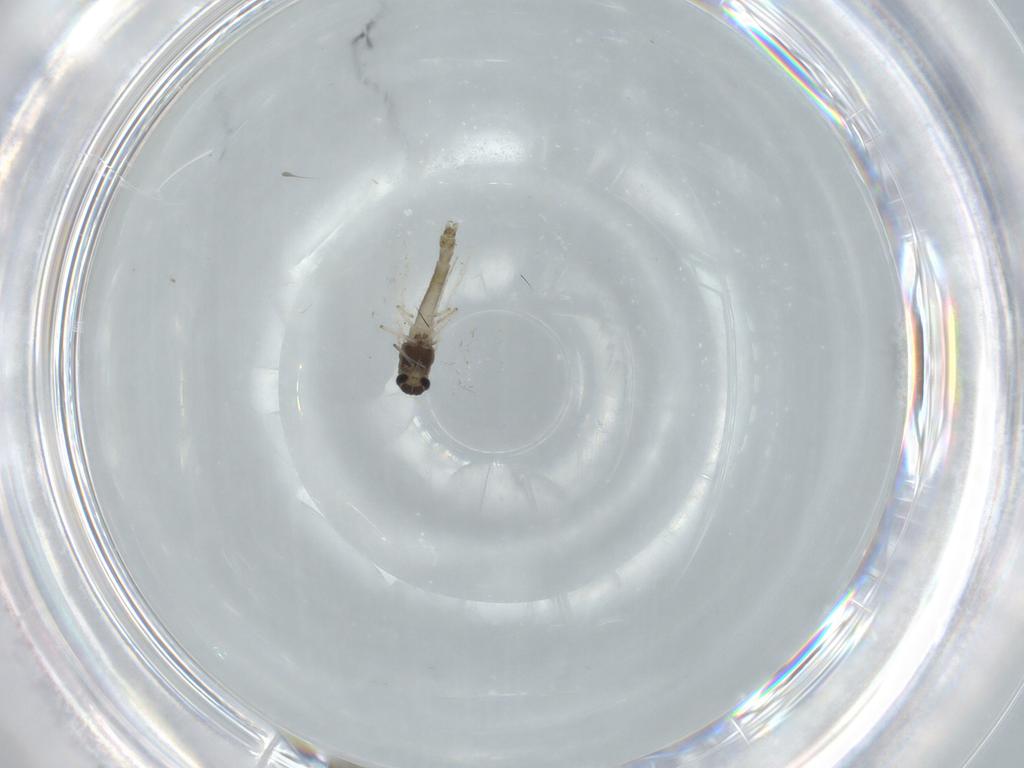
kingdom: Animalia
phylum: Arthropoda
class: Insecta
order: Diptera
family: Chironomidae
